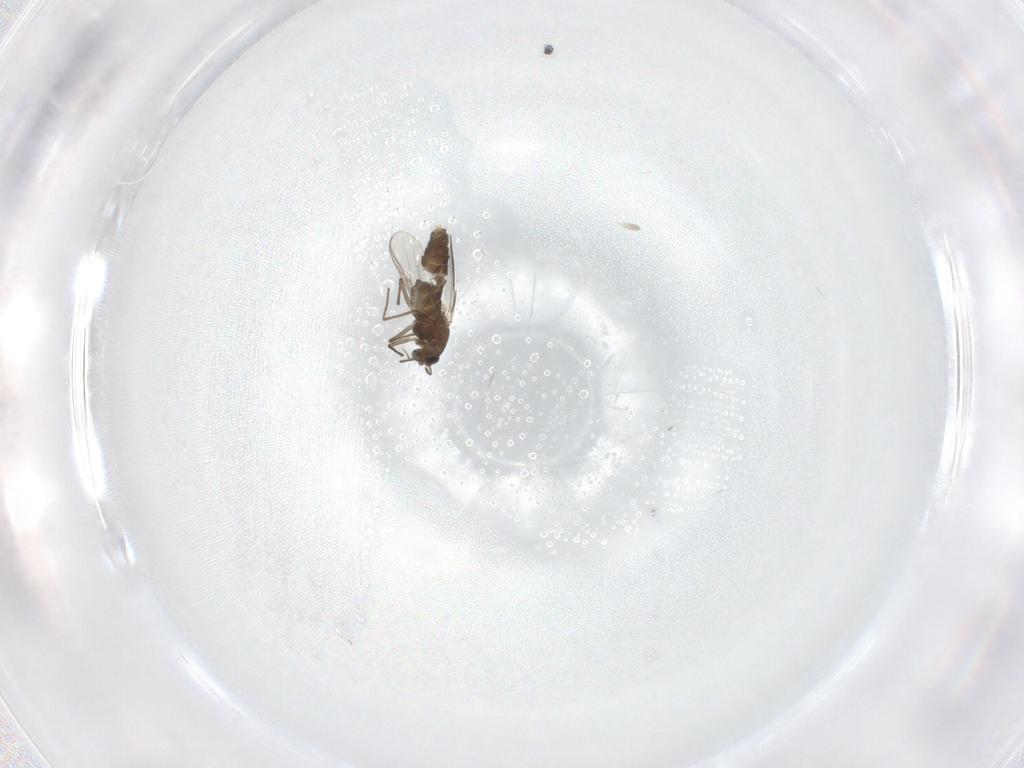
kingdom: Animalia
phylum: Arthropoda
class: Insecta
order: Diptera
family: Chironomidae
